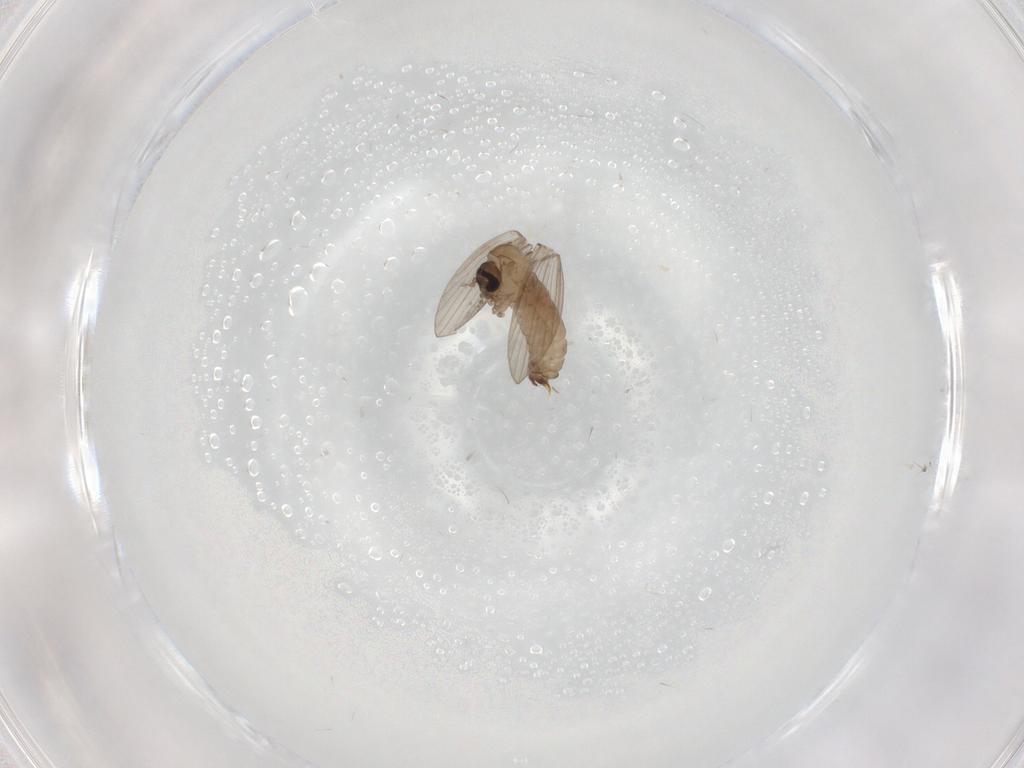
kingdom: Animalia
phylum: Arthropoda
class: Insecta
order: Diptera
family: Psychodidae
